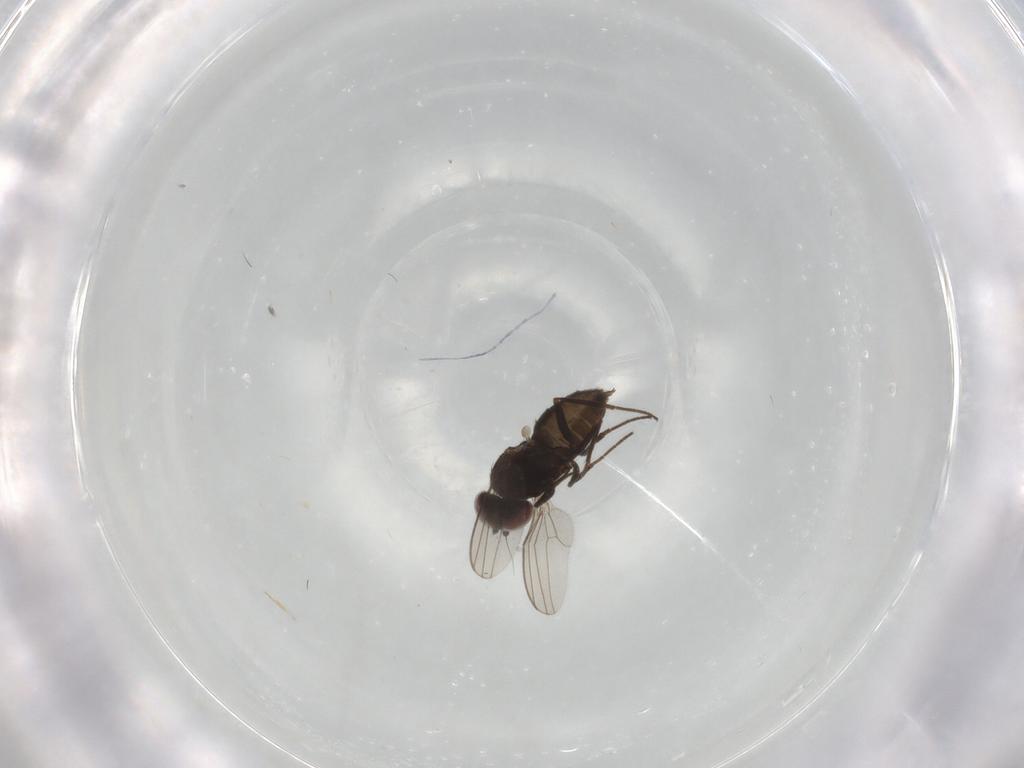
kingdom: Animalia
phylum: Arthropoda
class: Insecta
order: Diptera
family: Dolichopodidae
